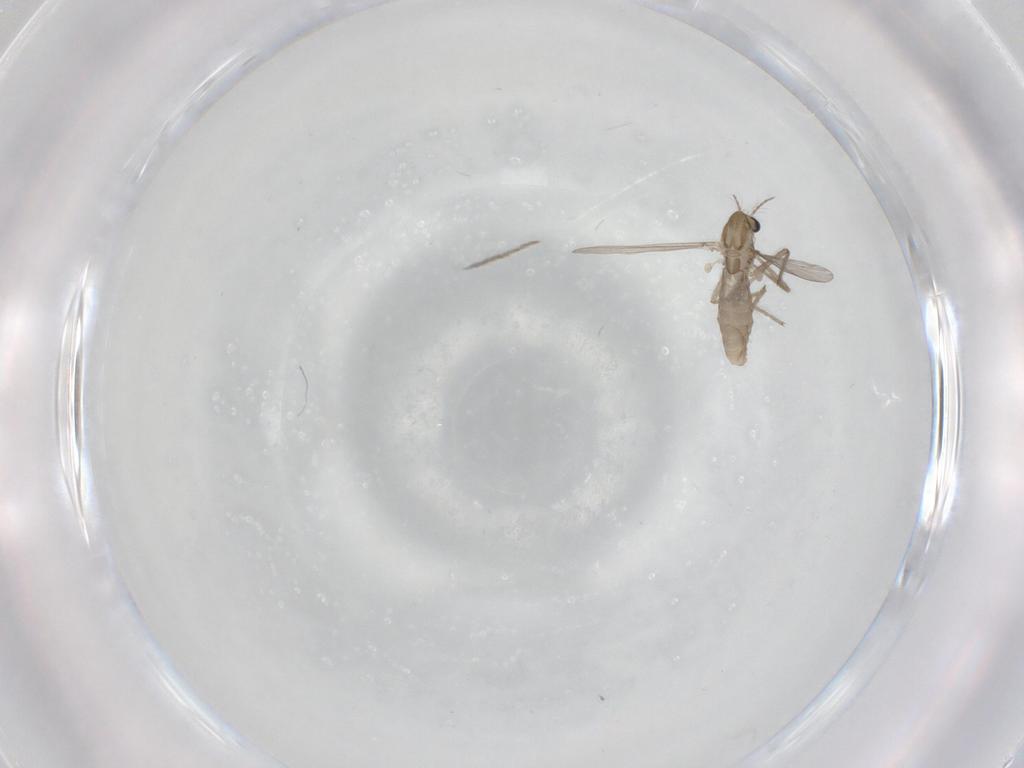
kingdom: Animalia
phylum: Arthropoda
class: Insecta
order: Diptera
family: Chironomidae
